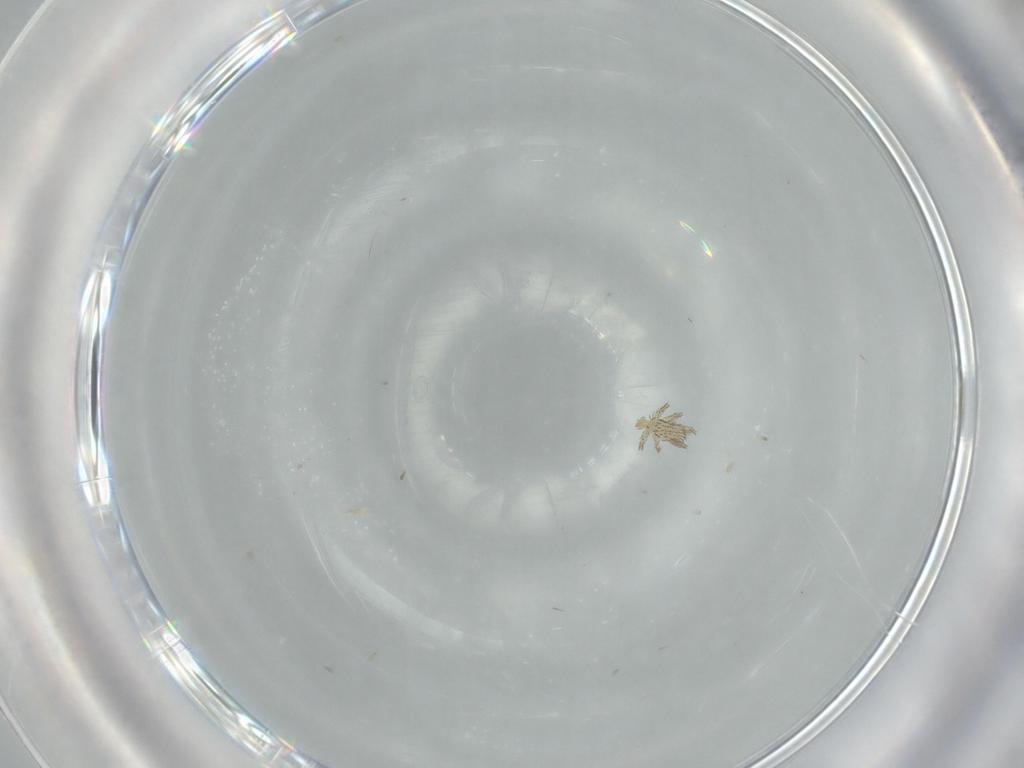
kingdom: Animalia
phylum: Arthropoda
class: Arachnida
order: Trombidiformes
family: Erythraeidae
